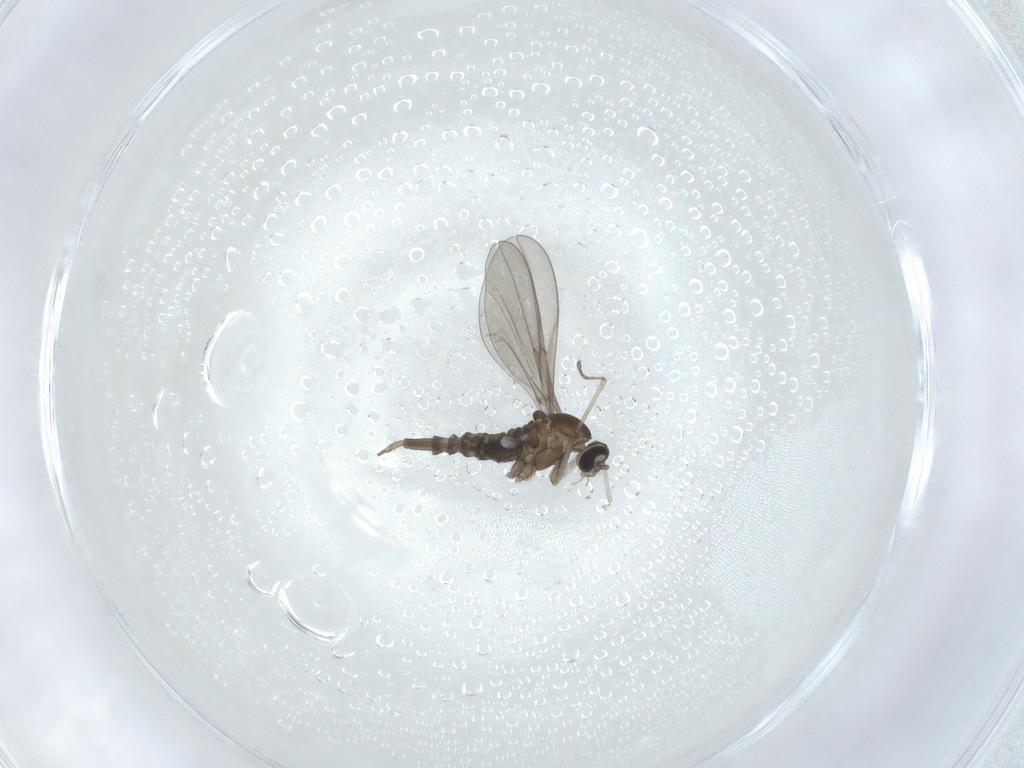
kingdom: Animalia
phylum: Arthropoda
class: Insecta
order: Diptera
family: Cecidomyiidae
